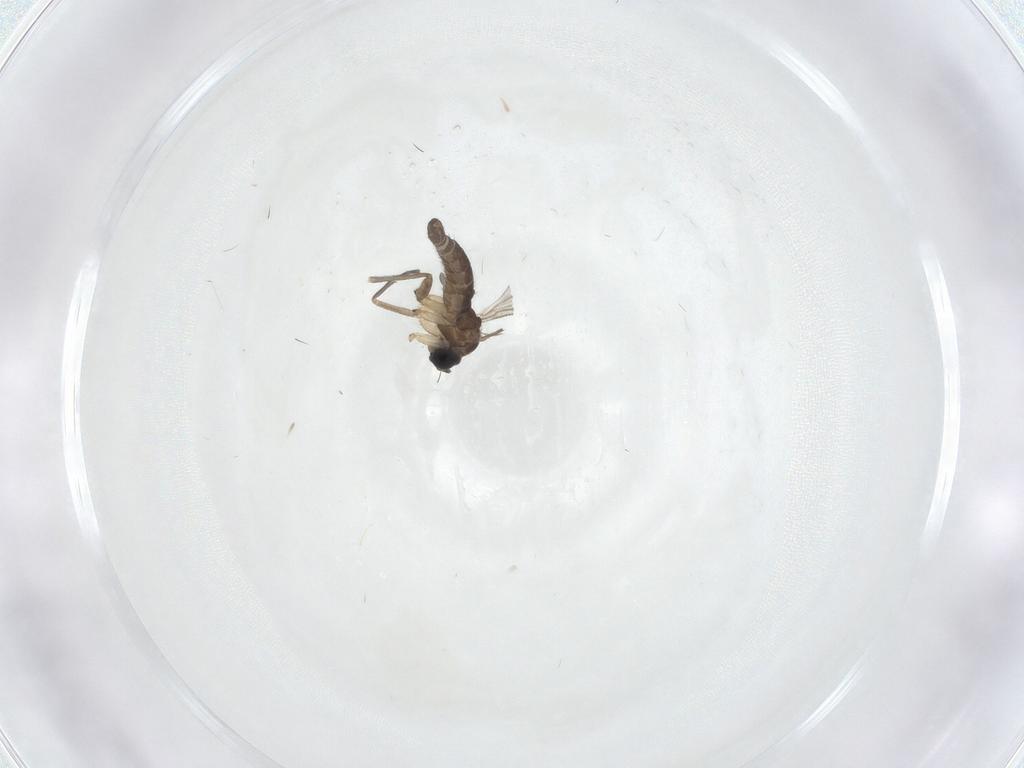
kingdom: Animalia
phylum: Arthropoda
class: Insecta
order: Diptera
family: Sciaridae
